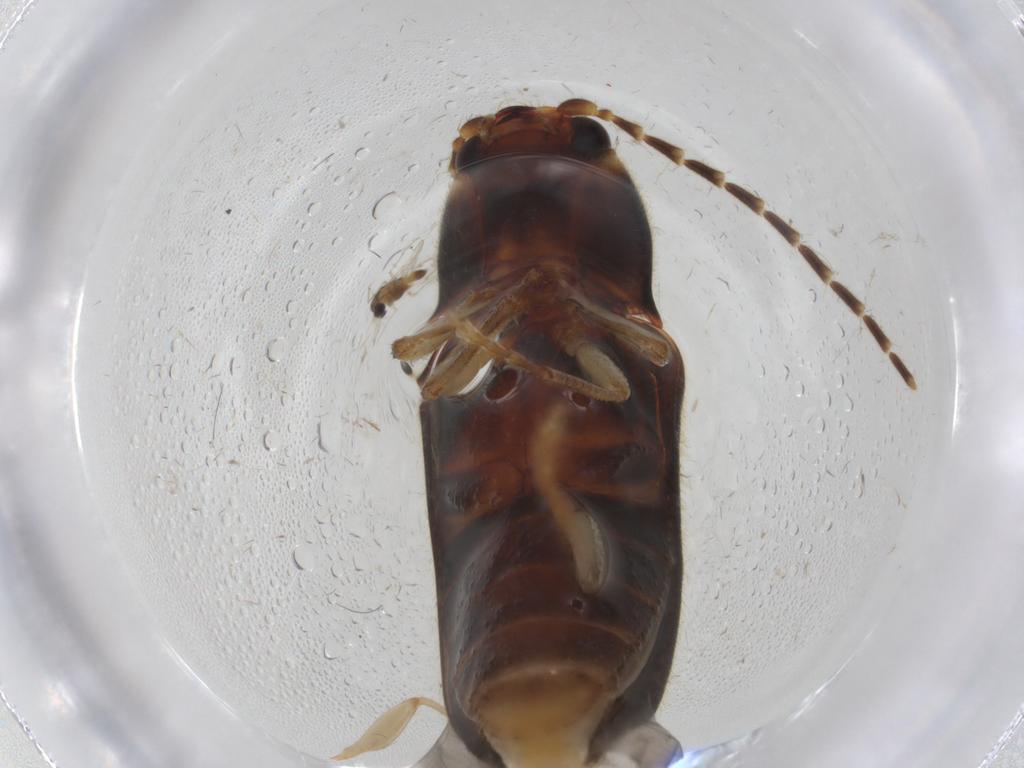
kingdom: Animalia
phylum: Arthropoda
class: Insecta
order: Coleoptera
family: Elateridae
